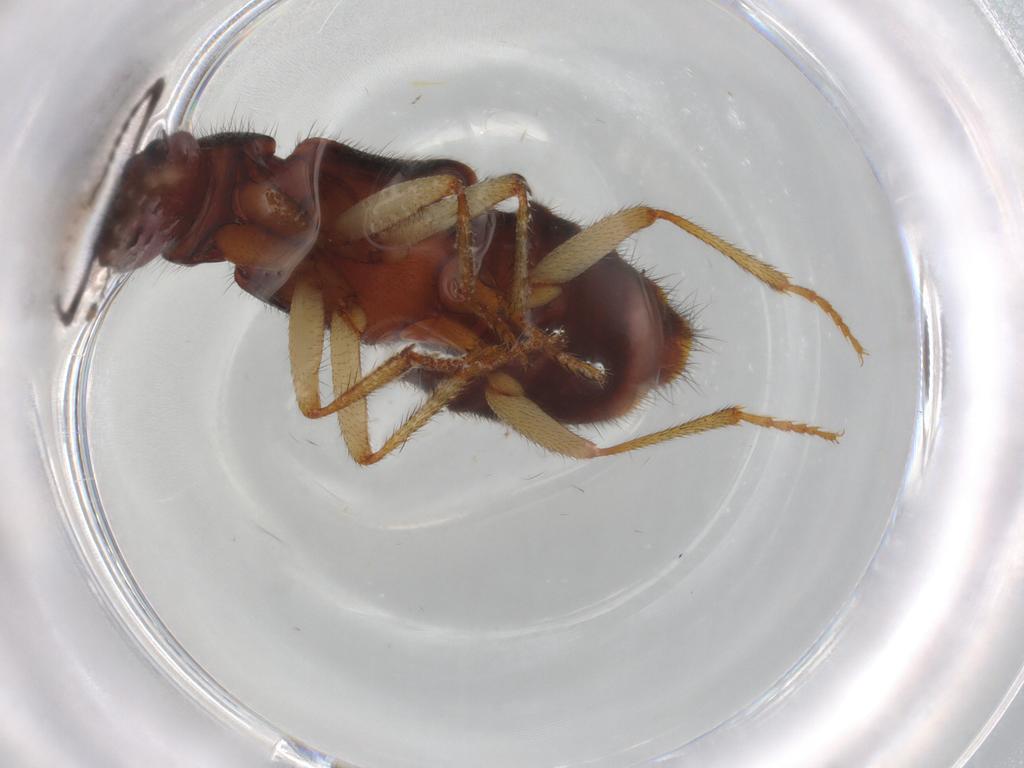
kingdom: Animalia
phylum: Arthropoda
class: Insecta
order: Coleoptera
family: Staphylinidae
